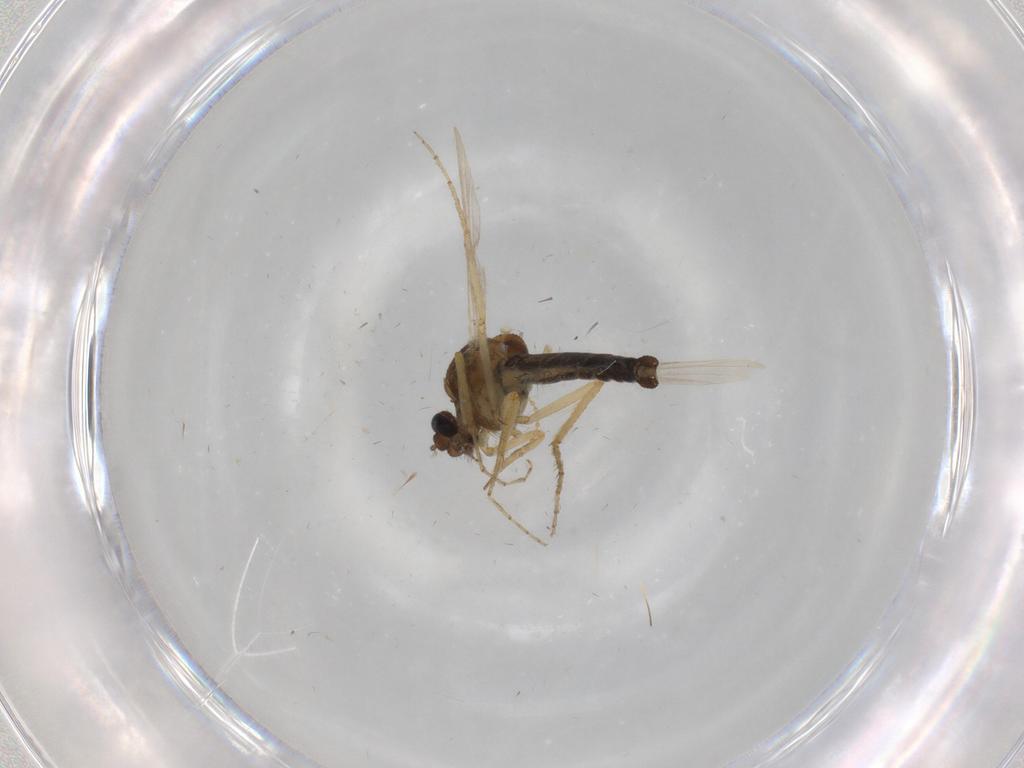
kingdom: Animalia
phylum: Arthropoda
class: Insecta
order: Diptera
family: Ceratopogonidae
